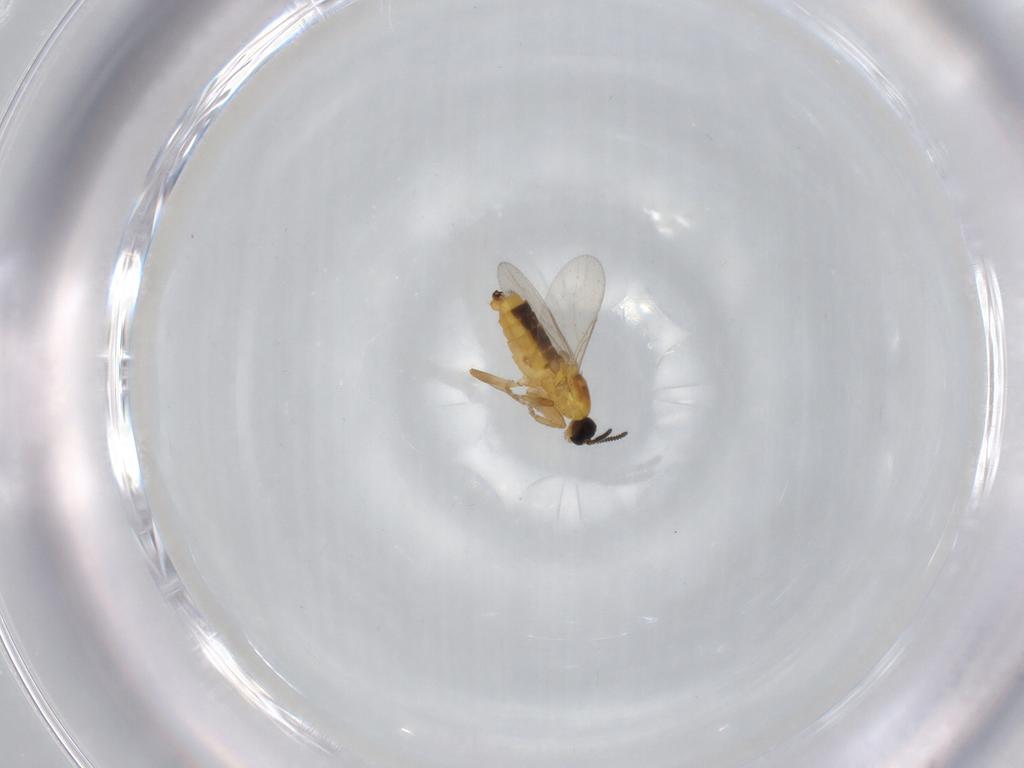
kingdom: Animalia
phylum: Arthropoda
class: Insecta
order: Diptera
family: Scatopsidae
